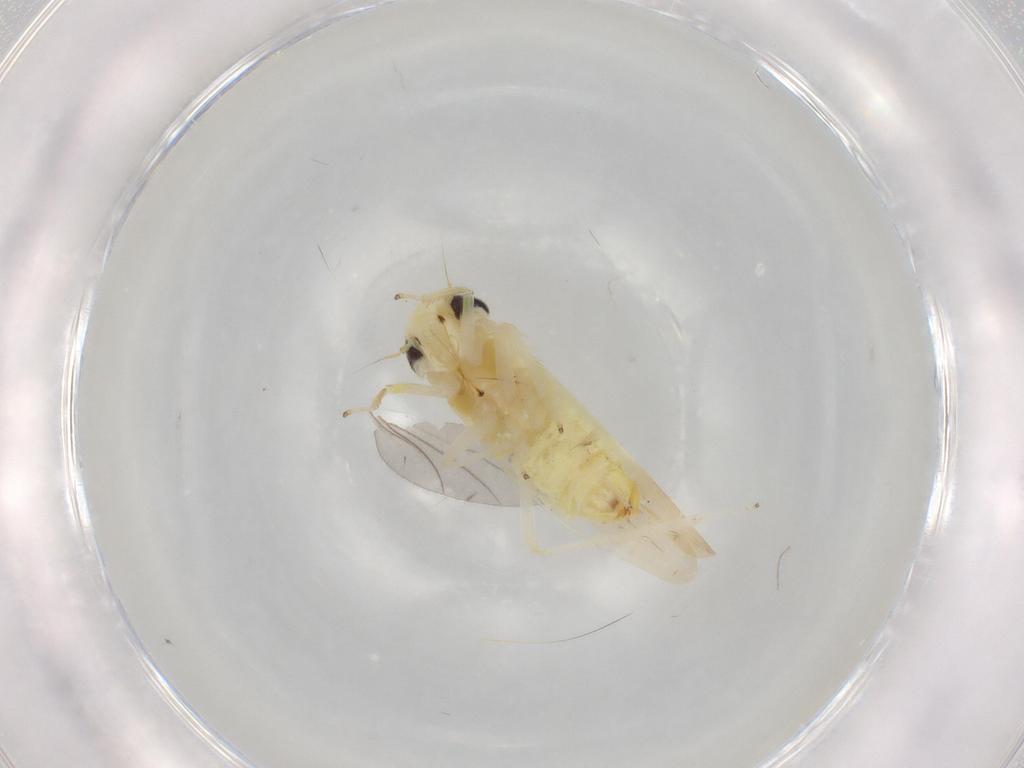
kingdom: Animalia
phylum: Arthropoda
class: Insecta
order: Hemiptera
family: Cicadellidae
